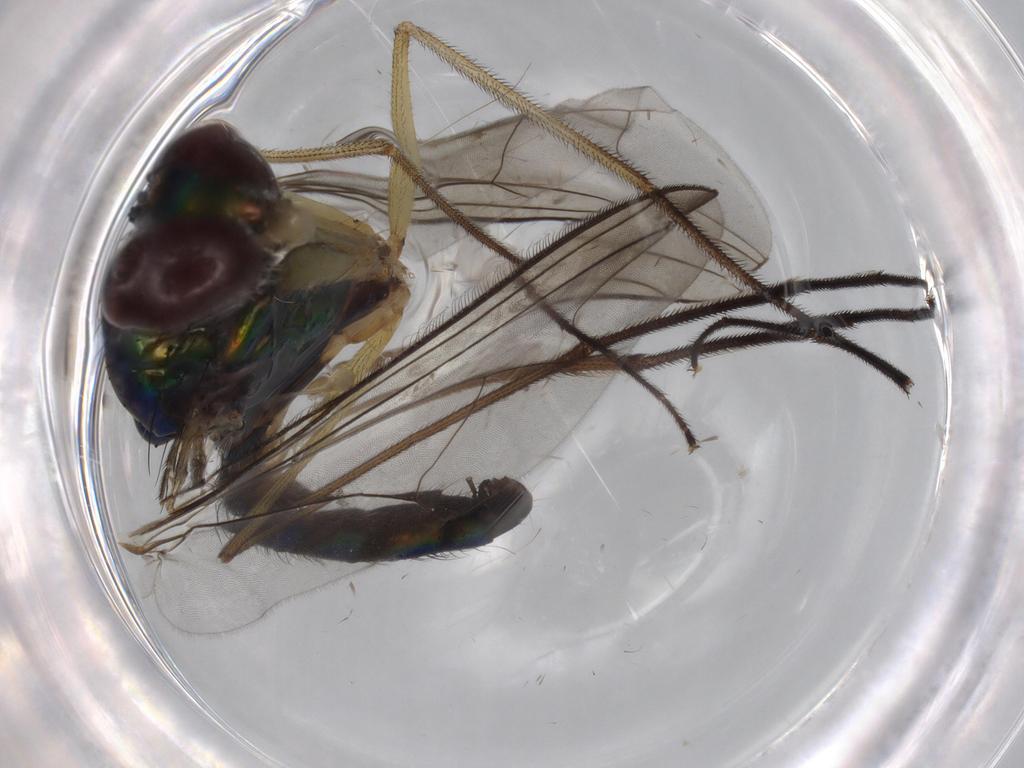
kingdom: Animalia
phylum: Arthropoda
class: Insecta
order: Diptera
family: Dolichopodidae
